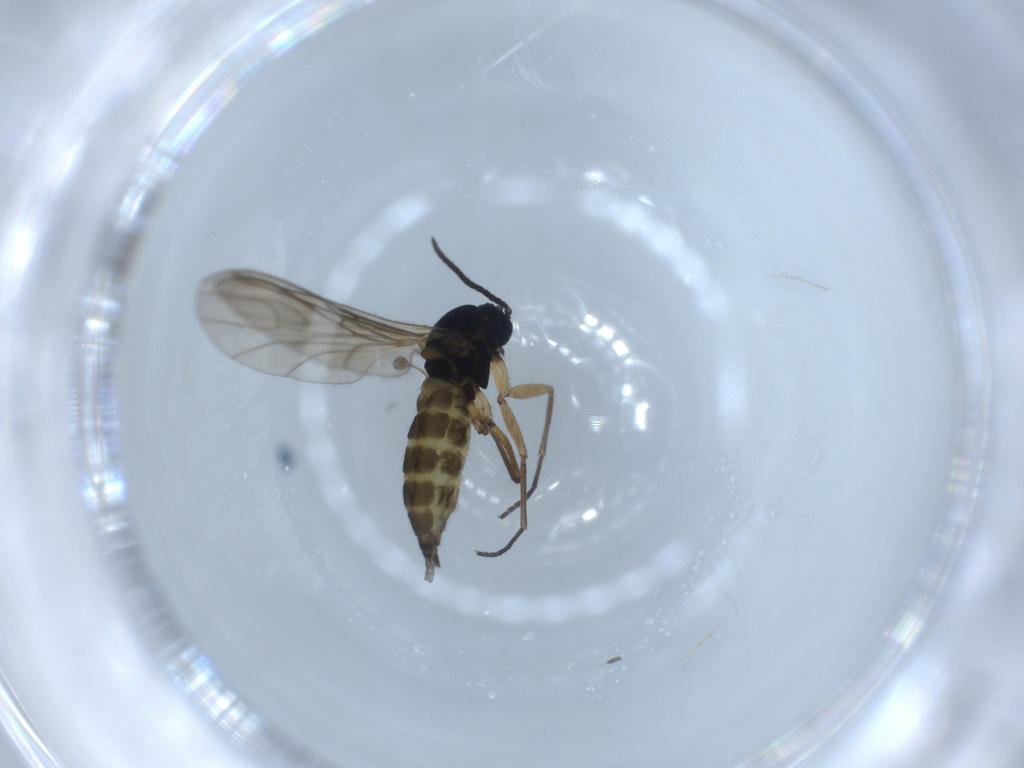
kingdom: Animalia
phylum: Arthropoda
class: Insecta
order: Diptera
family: Sciaridae
